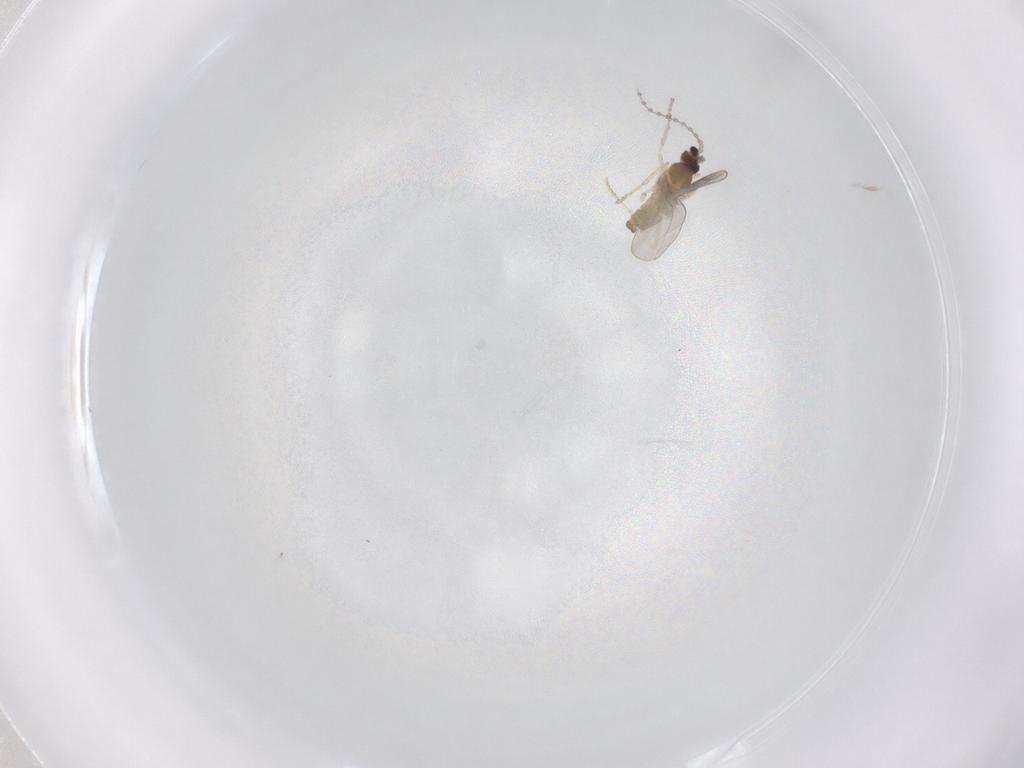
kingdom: Animalia
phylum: Arthropoda
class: Insecta
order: Diptera
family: Cecidomyiidae
